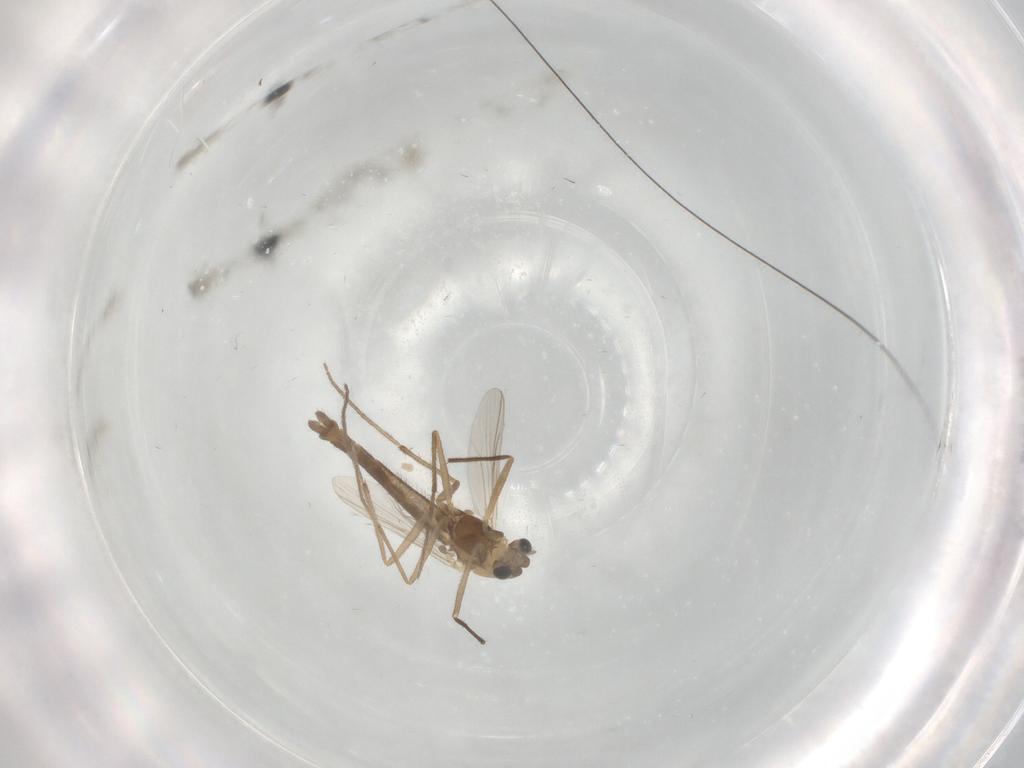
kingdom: Animalia
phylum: Arthropoda
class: Insecta
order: Diptera
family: Chironomidae
